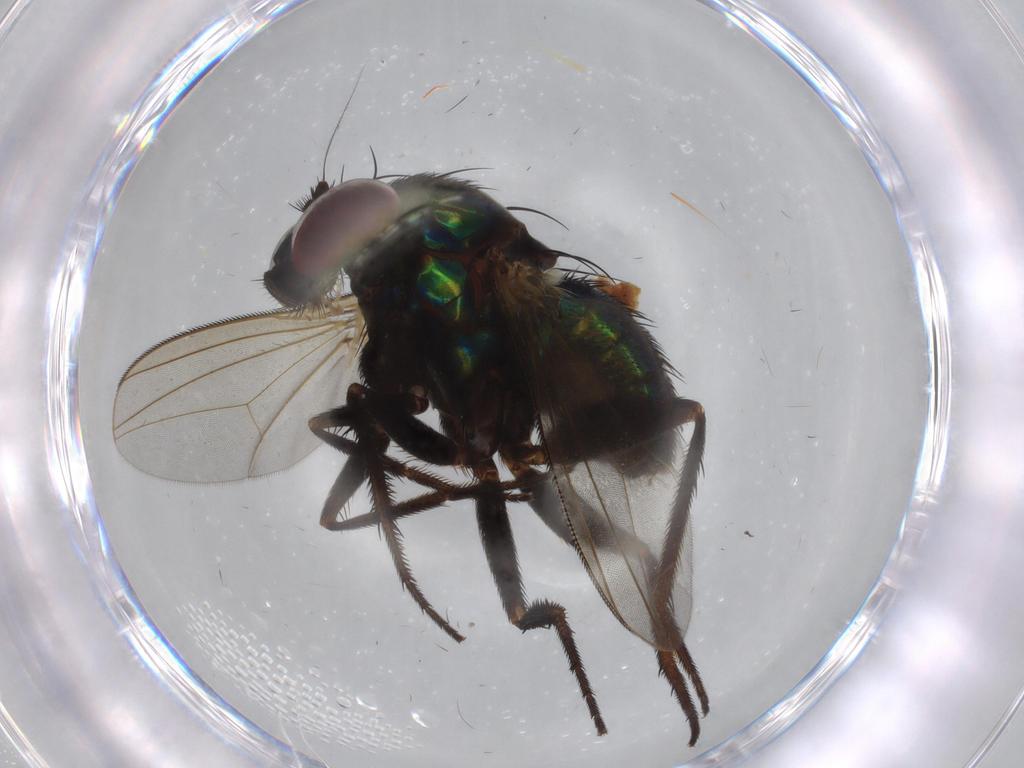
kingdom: Animalia
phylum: Arthropoda
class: Insecta
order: Diptera
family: Dolichopodidae
